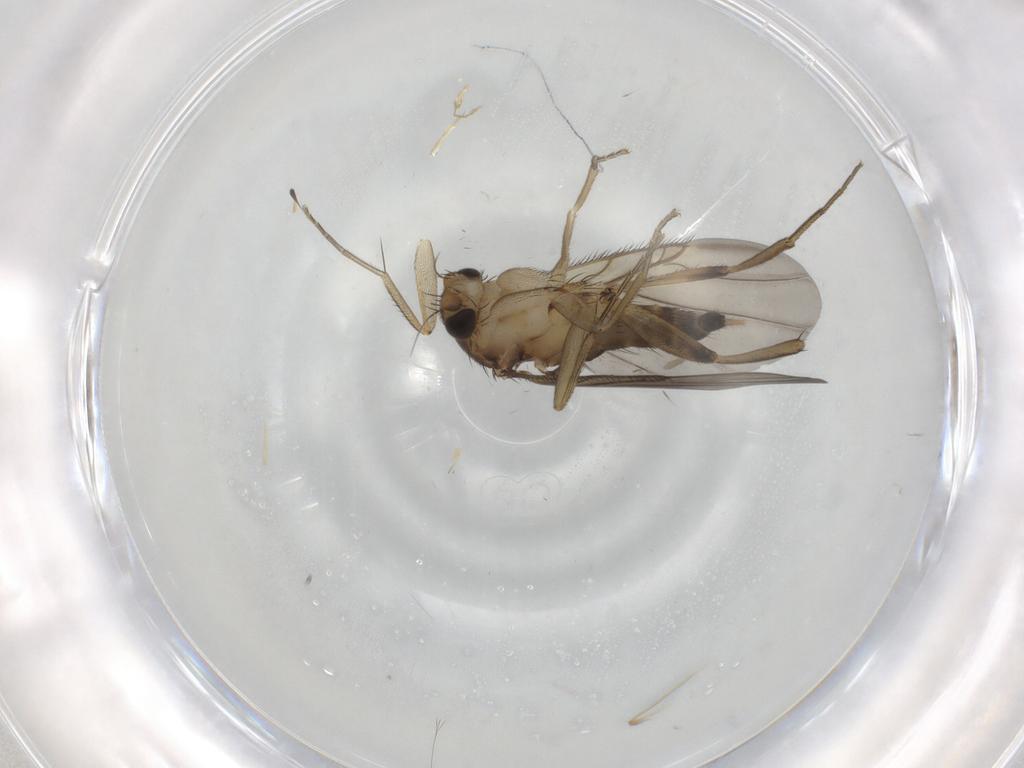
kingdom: Animalia
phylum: Arthropoda
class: Insecta
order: Diptera
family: Phoridae
